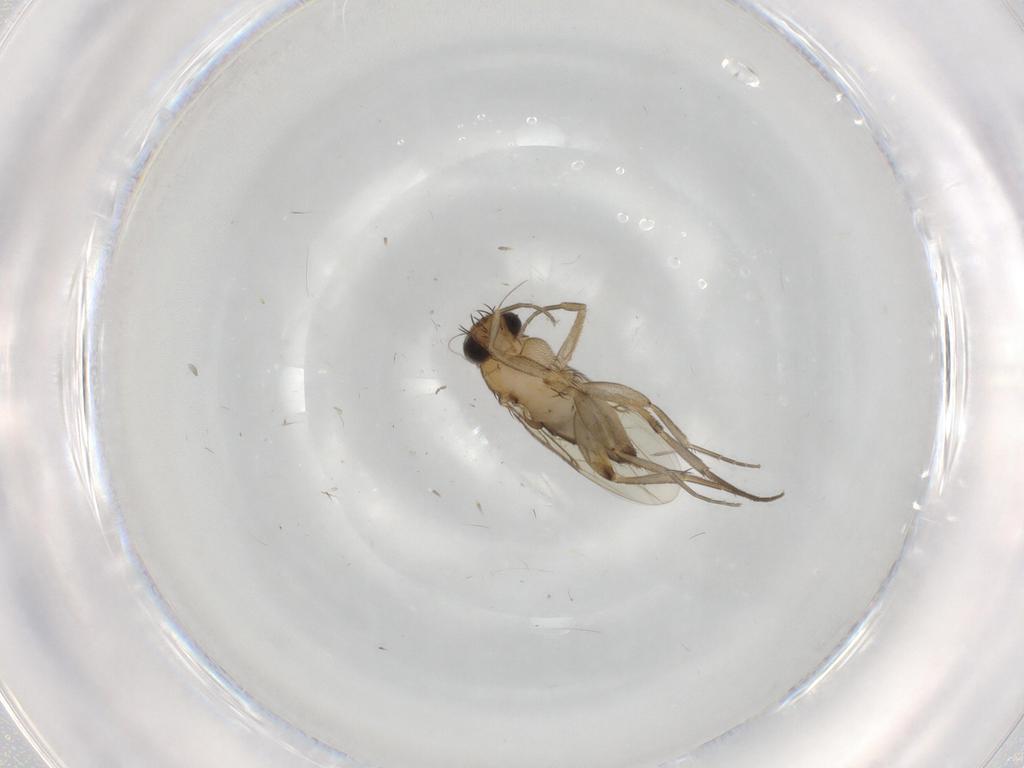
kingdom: Animalia
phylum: Arthropoda
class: Insecta
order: Diptera
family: Phoridae
